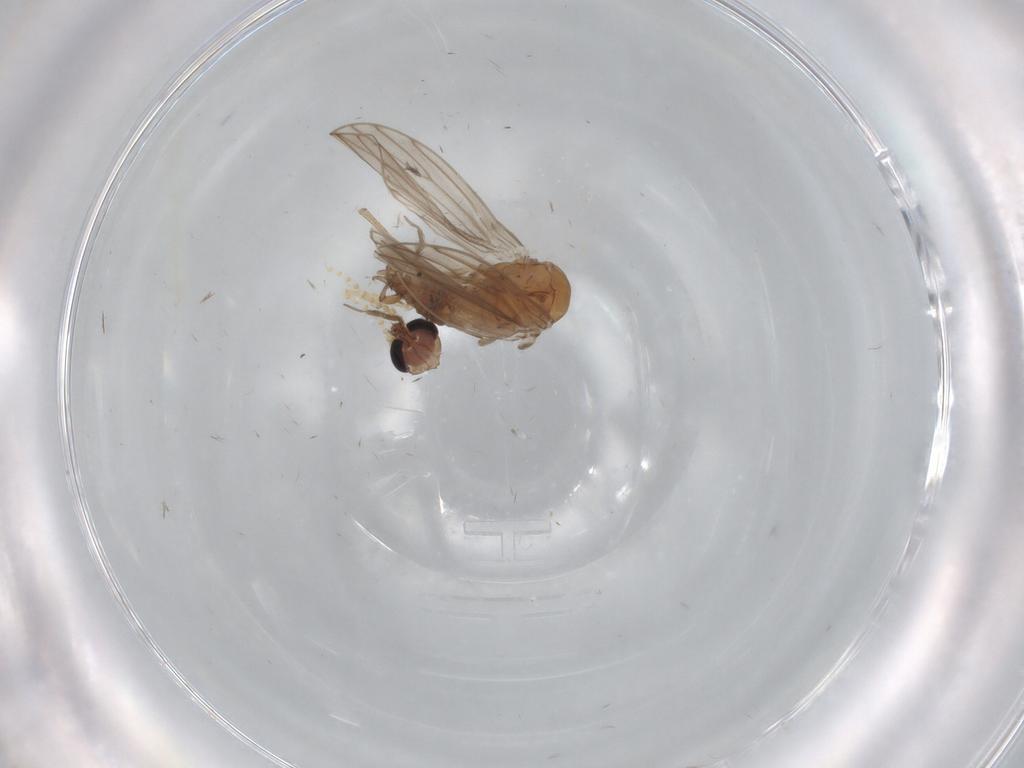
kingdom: Animalia
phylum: Arthropoda
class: Insecta
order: Diptera
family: Psychodidae
